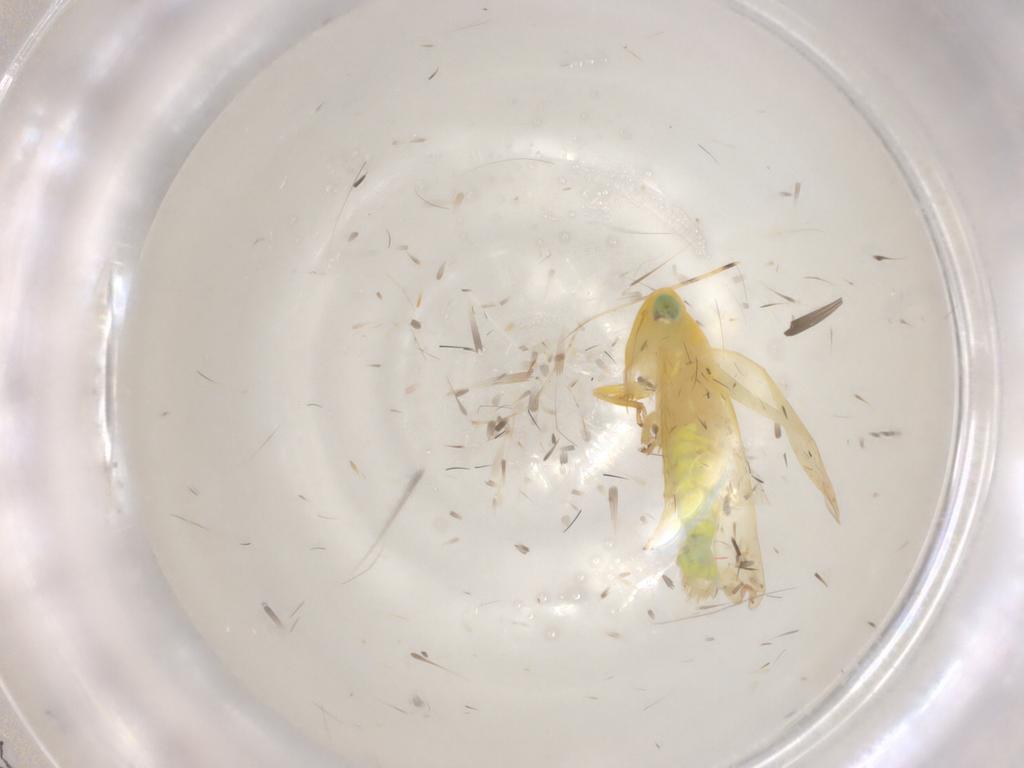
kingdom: Animalia
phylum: Arthropoda
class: Insecta
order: Hemiptera
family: Cicadellidae
